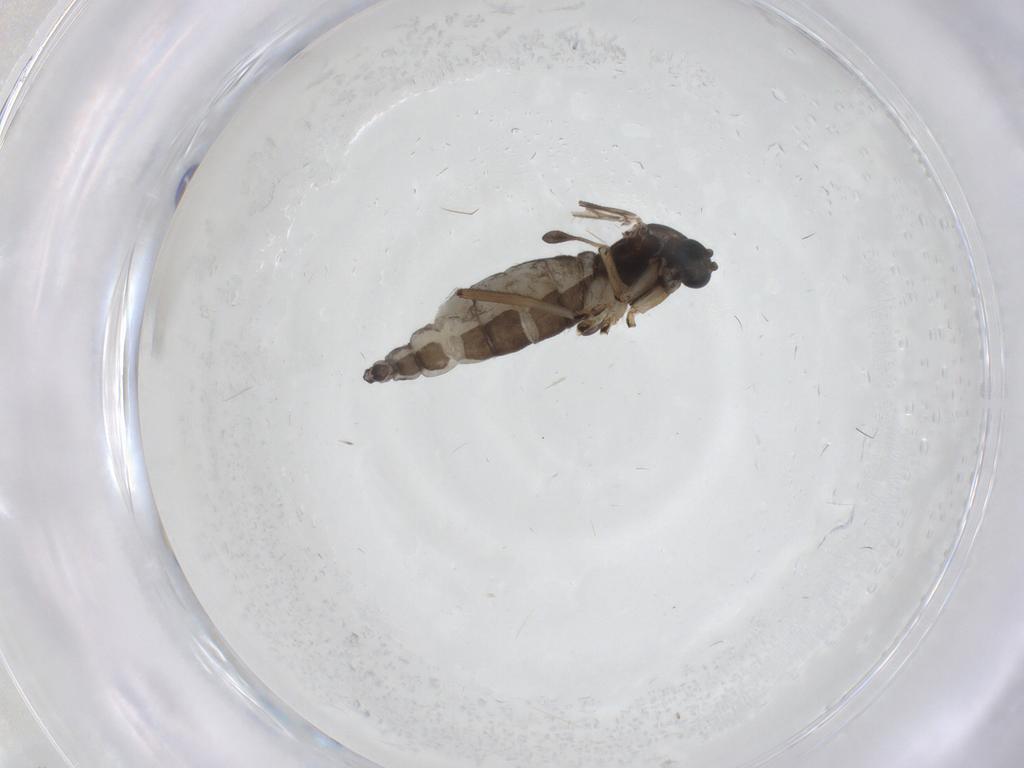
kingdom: Animalia
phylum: Arthropoda
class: Insecta
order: Diptera
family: Sciaridae
